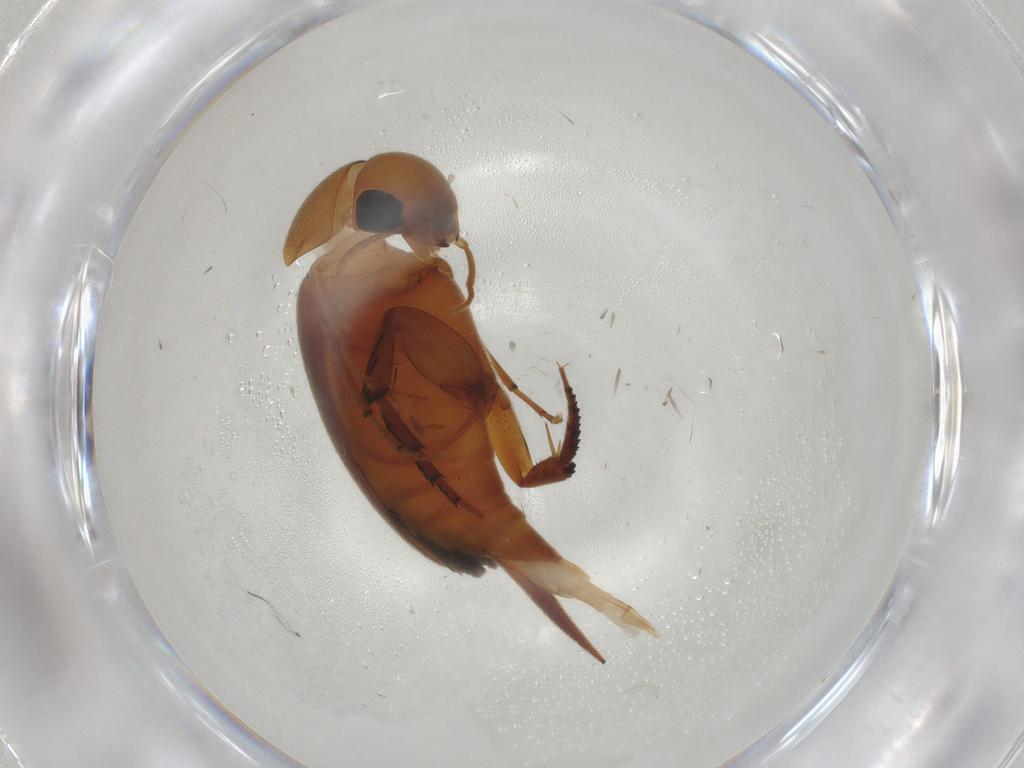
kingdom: Animalia
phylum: Arthropoda
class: Insecta
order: Coleoptera
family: Mordellidae
